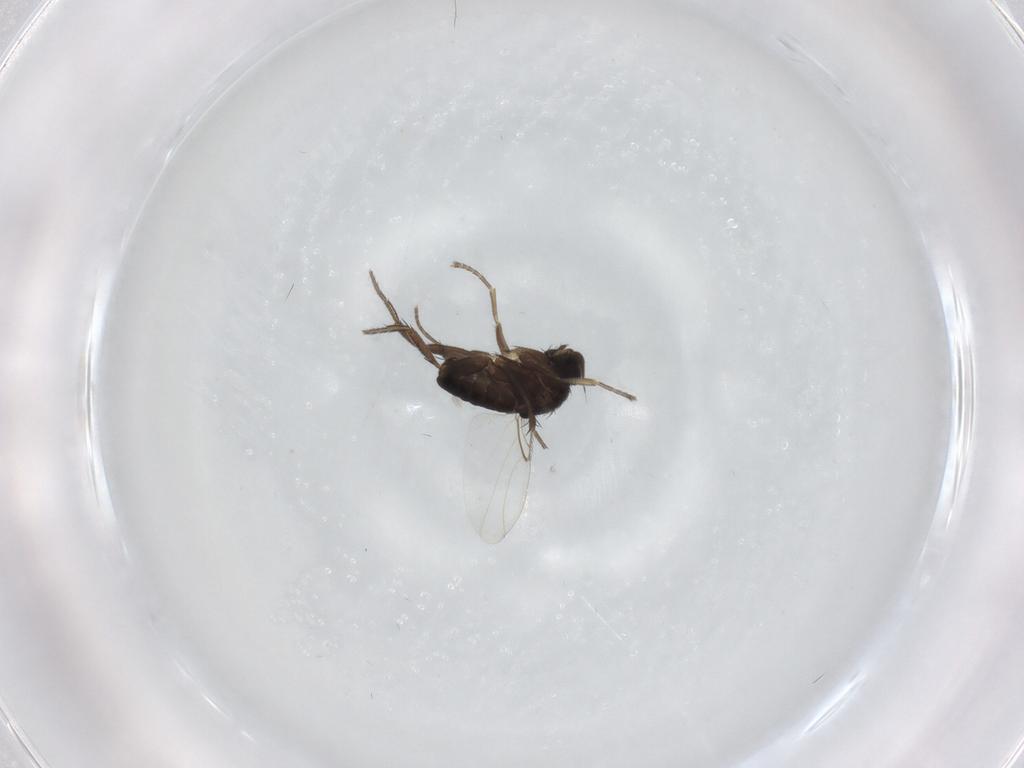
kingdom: Animalia
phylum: Arthropoda
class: Insecta
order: Diptera
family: Phoridae
